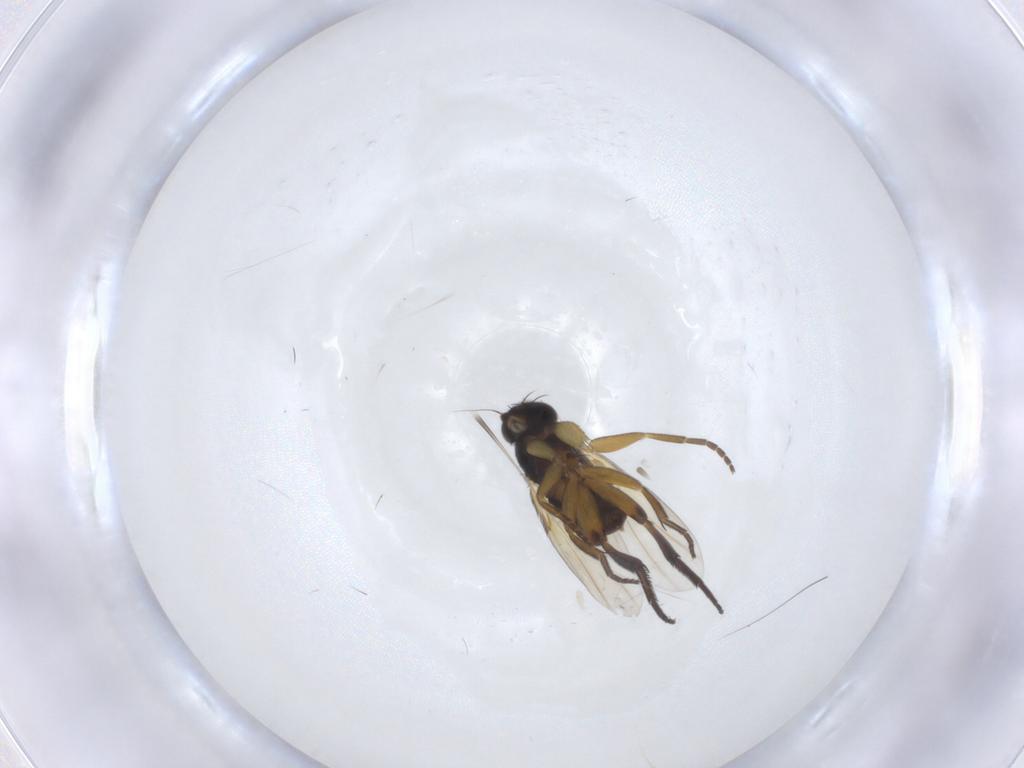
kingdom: Animalia
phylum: Arthropoda
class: Insecta
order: Diptera
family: Phoridae
